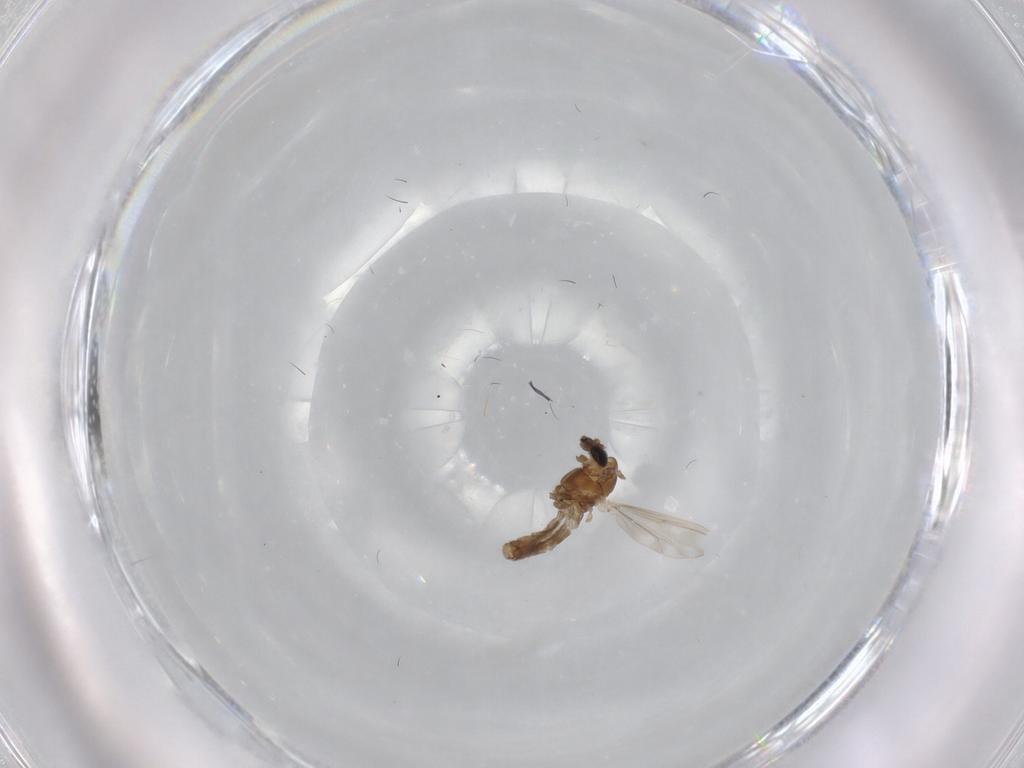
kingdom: Animalia
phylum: Arthropoda
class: Insecta
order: Diptera
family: Chironomidae
